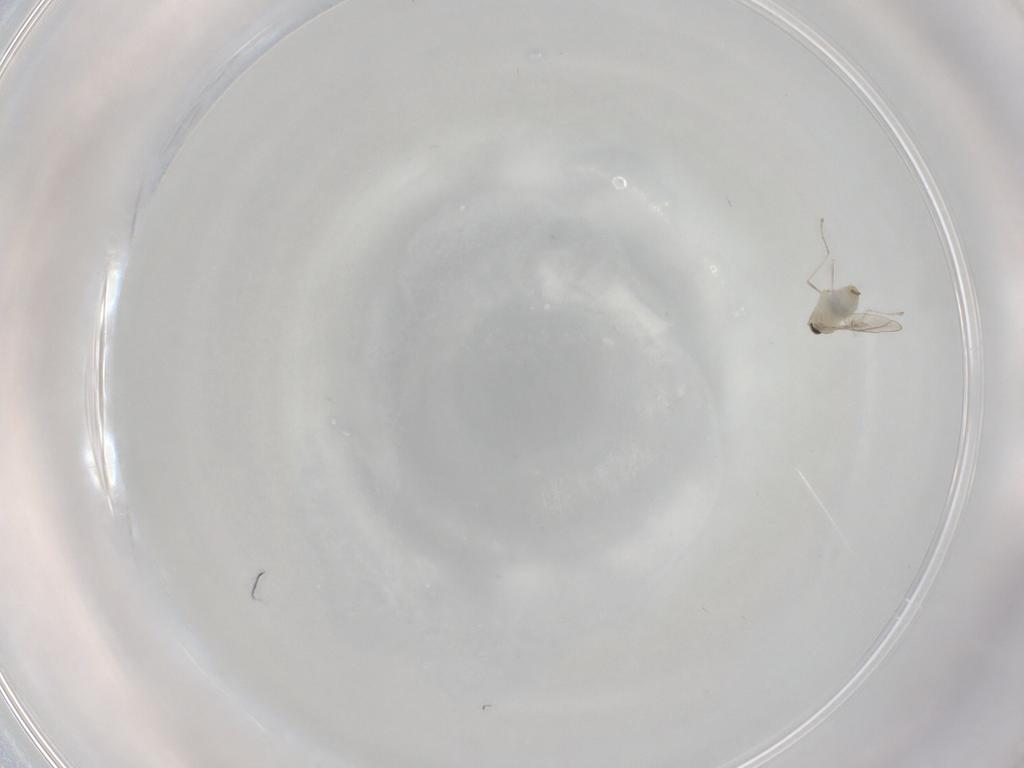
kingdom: Animalia
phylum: Arthropoda
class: Insecta
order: Diptera
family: Cecidomyiidae
